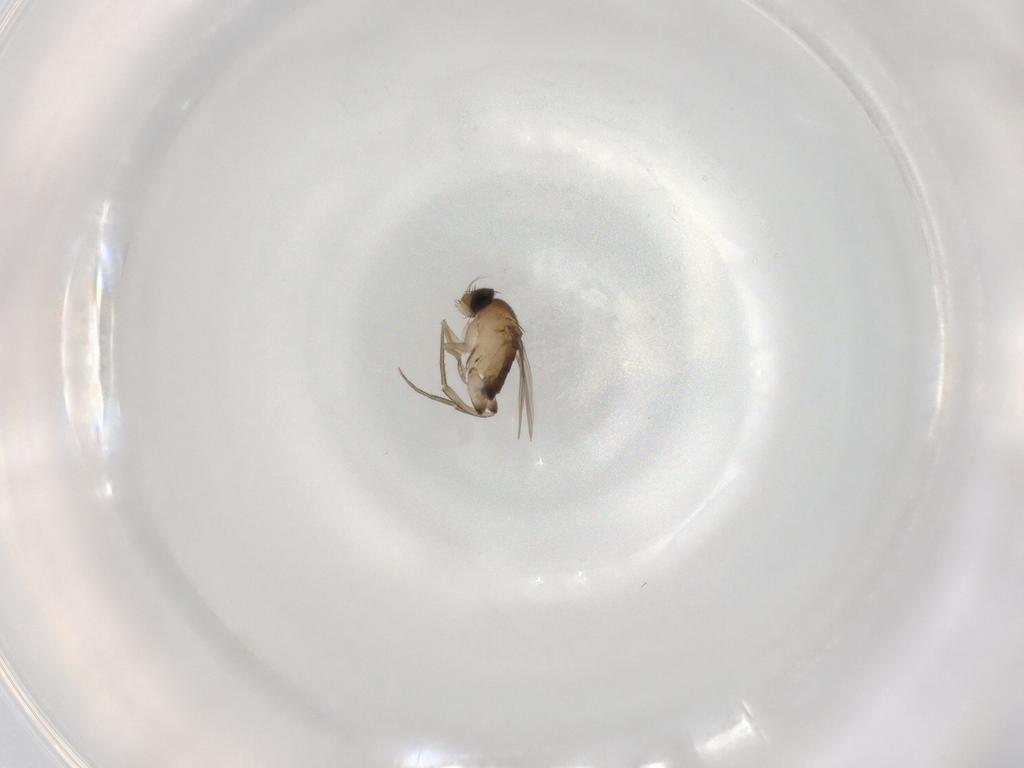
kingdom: Animalia
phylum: Arthropoda
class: Insecta
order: Diptera
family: Phoridae
